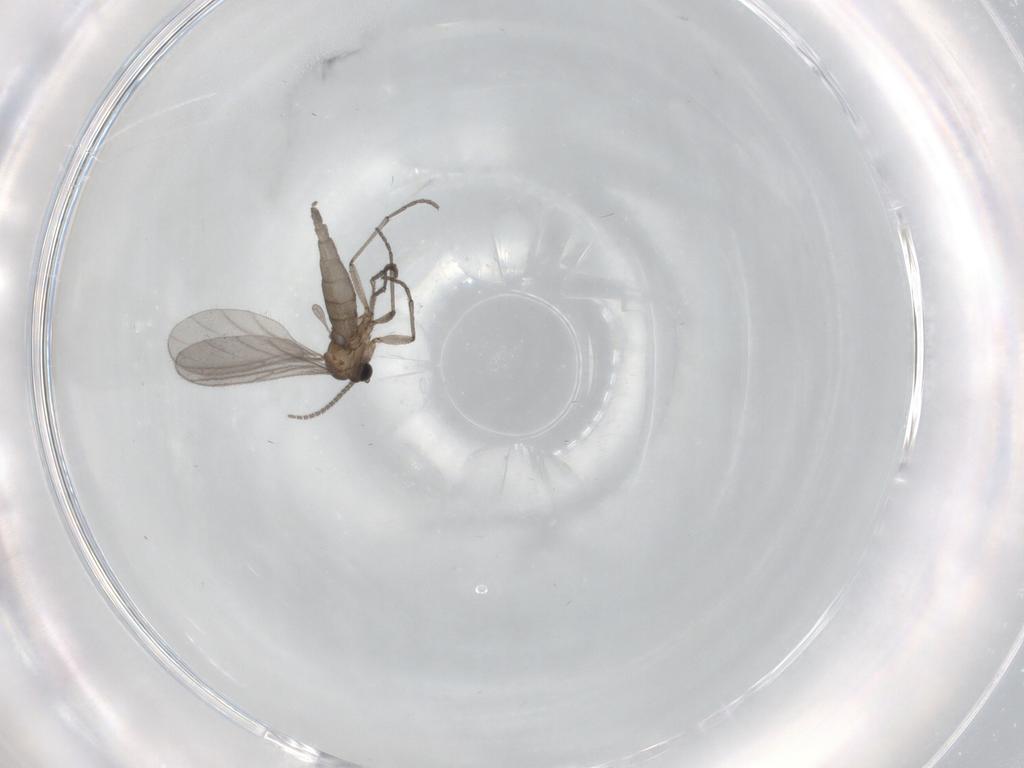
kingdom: Animalia
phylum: Arthropoda
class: Insecta
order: Diptera
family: Sciaridae
